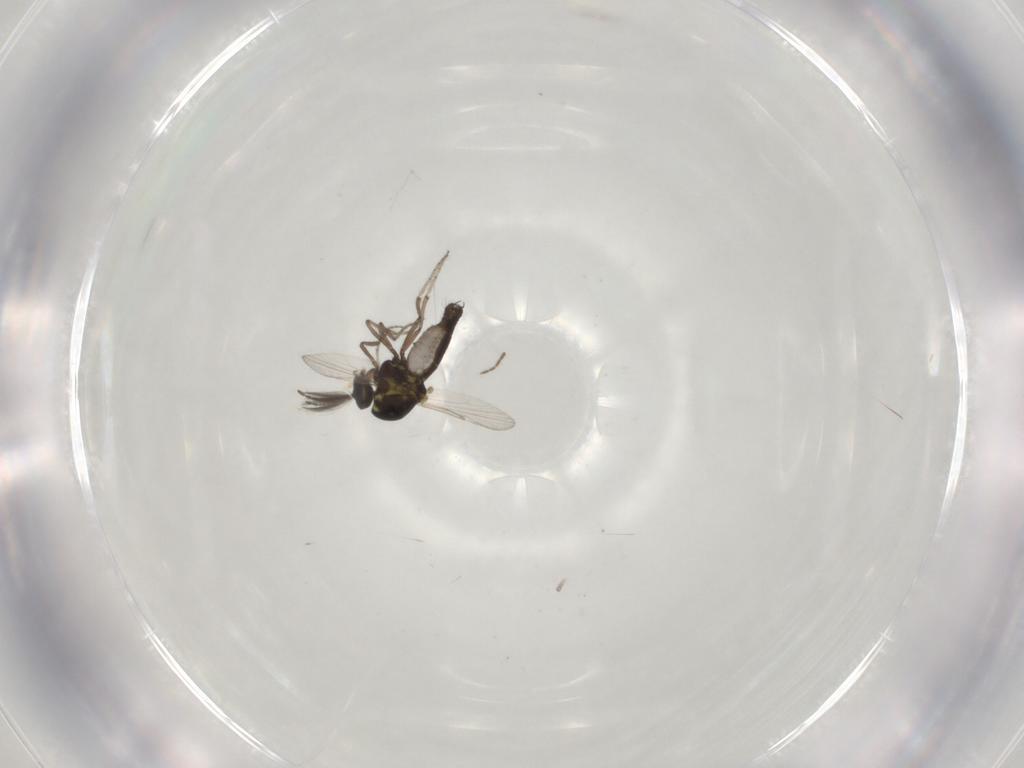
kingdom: Animalia
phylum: Arthropoda
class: Insecta
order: Diptera
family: Ceratopogonidae
